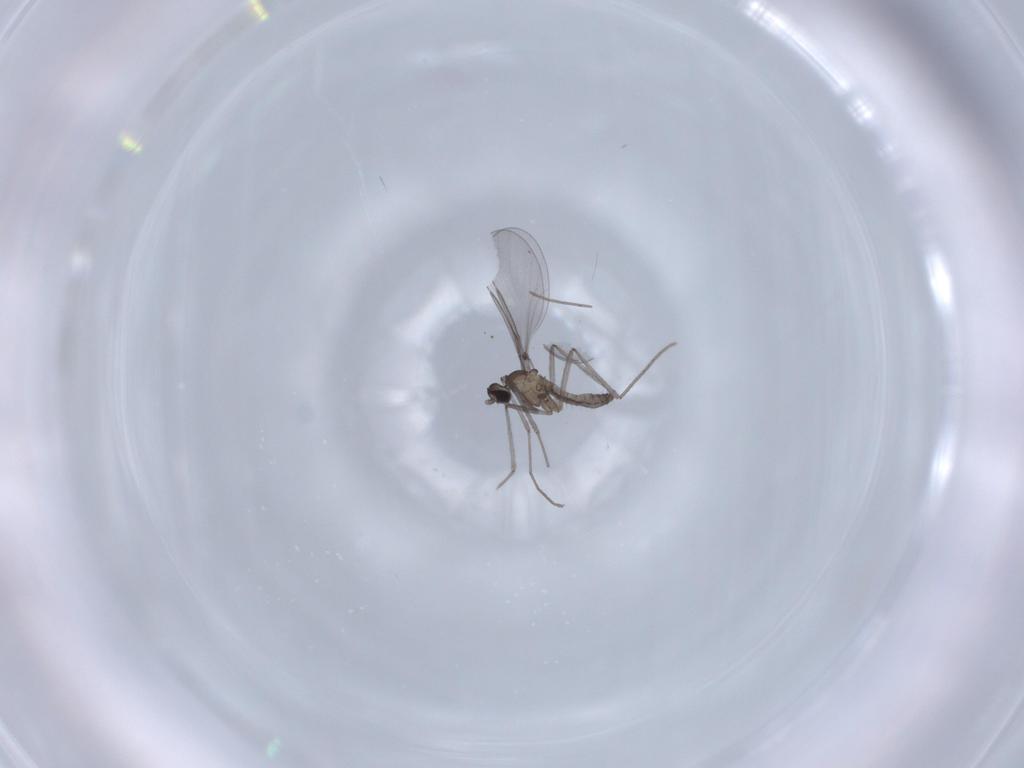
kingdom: Animalia
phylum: Arthropoda
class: Insecta
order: Diptera
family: Cecidomyiidae
